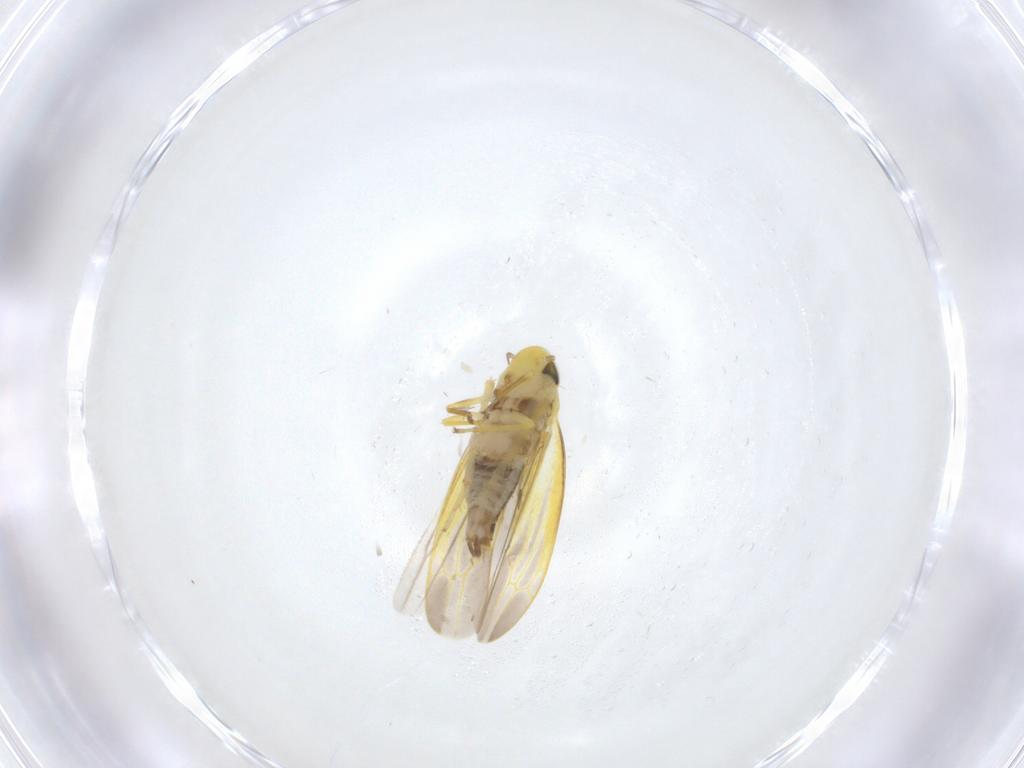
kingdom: Animalia
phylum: Arthropoda
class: Insecta
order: Hemiptera
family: Cicadellidae
